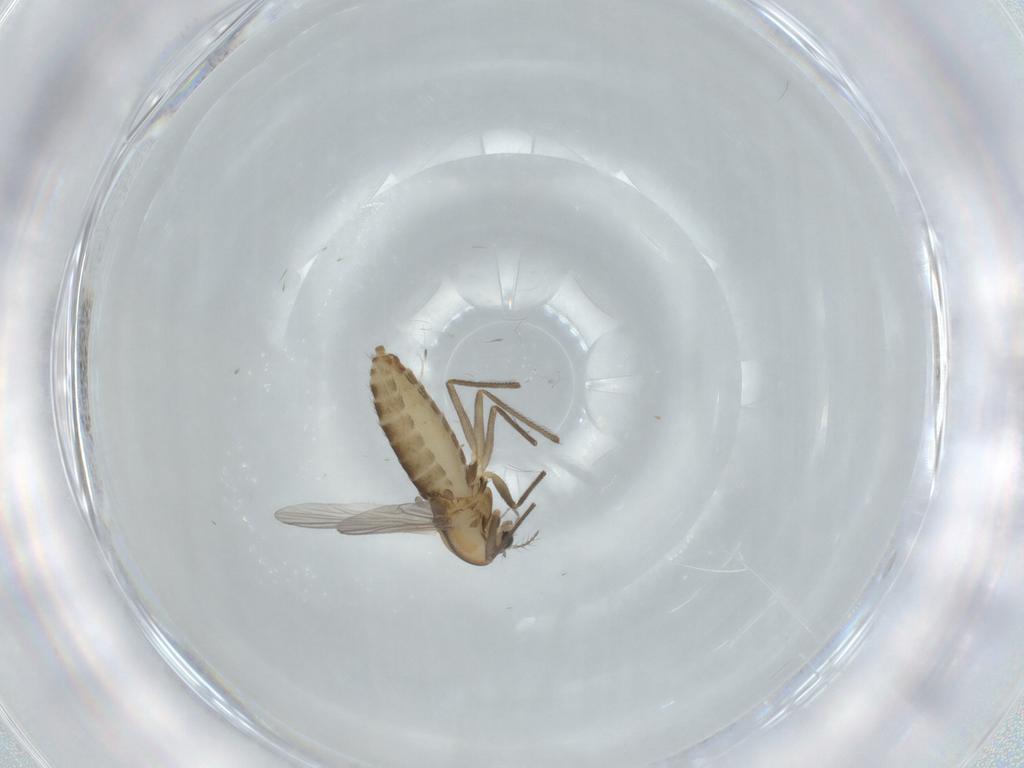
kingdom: Animalia
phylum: Arthropoda
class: Insecta
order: Diptera
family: Chironomidae
